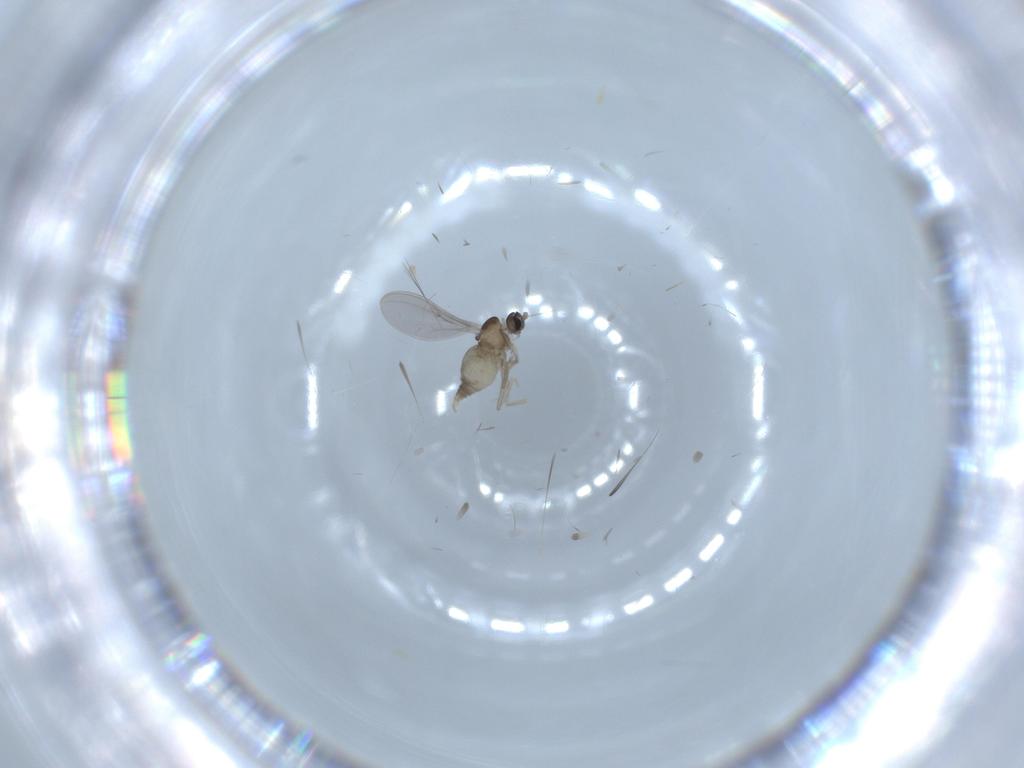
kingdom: Animalia
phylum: Arthropoda
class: Insecta
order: Diptera
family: Cecidomyiidae
